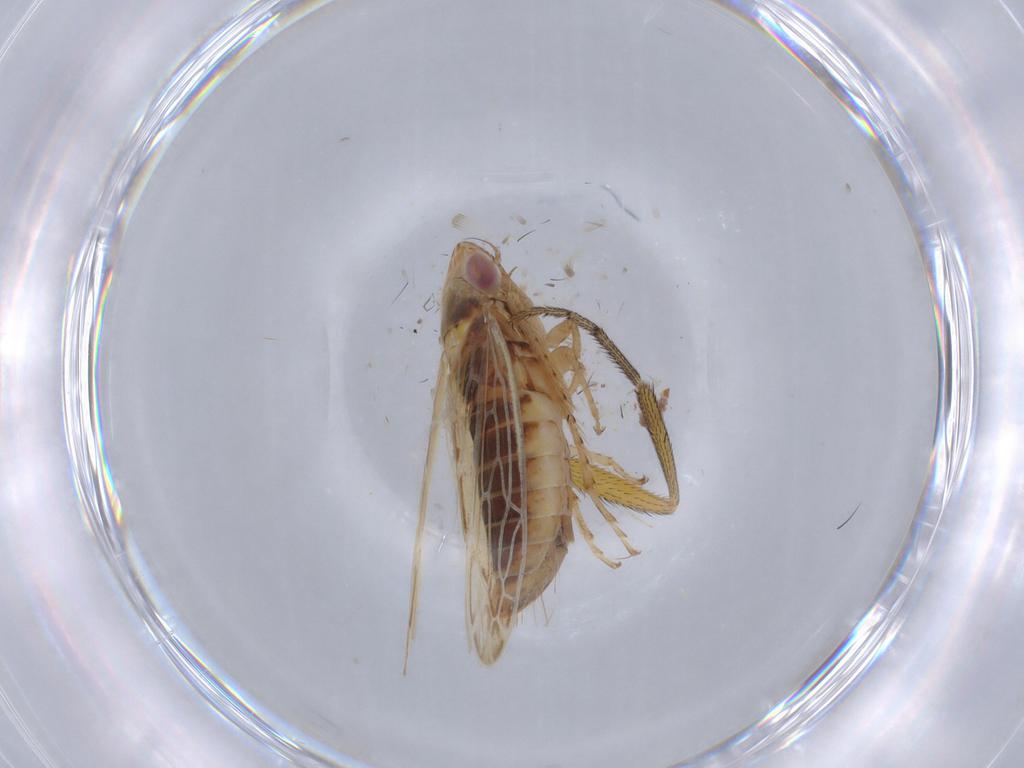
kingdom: Animalia
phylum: Arthropoda
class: Insecta
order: Hemiptera
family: Cicadellidae
